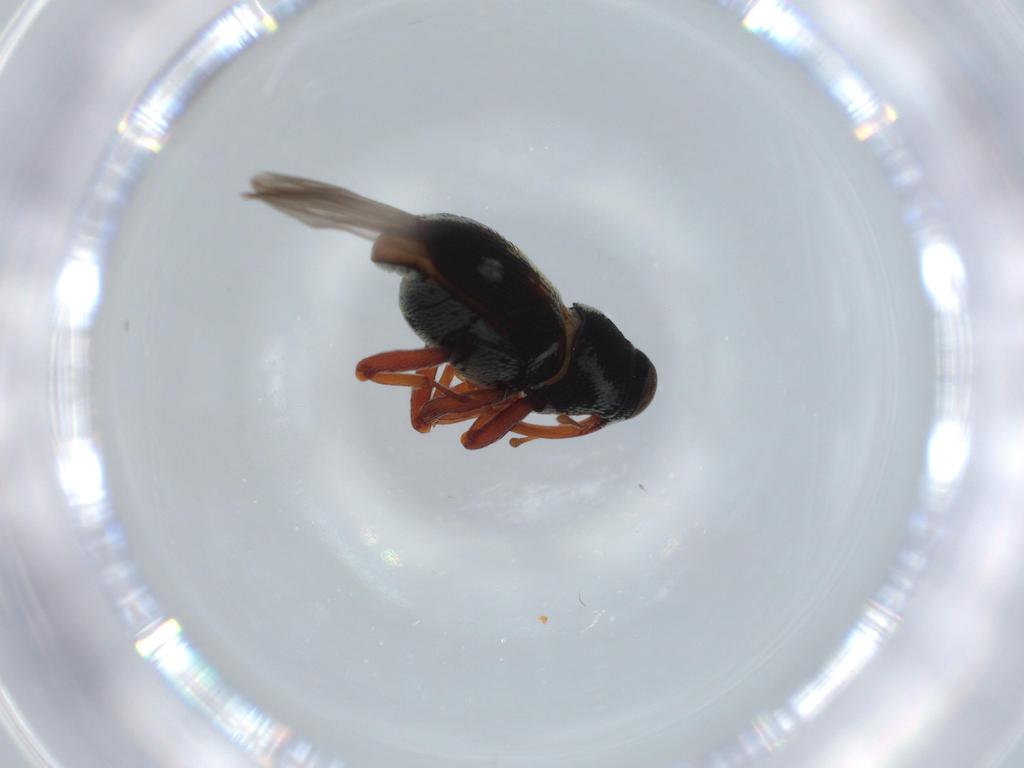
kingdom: Animalia
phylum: Arthropoda
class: Insecta
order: Coleoptera
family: Curculionidae
